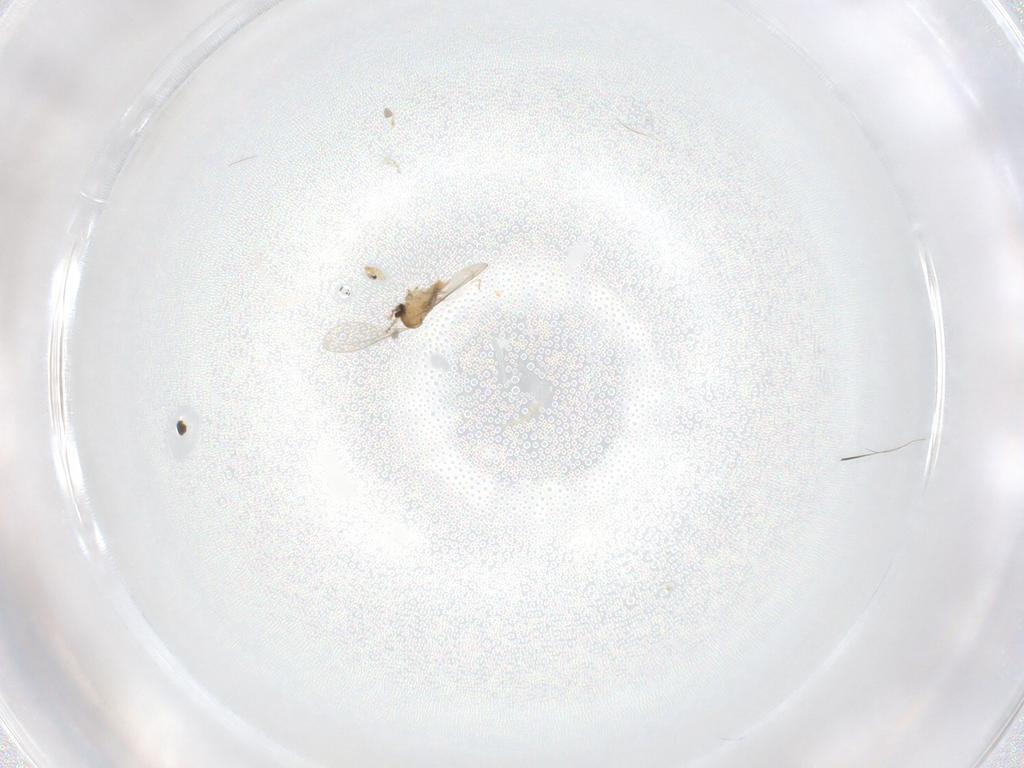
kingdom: Animalia
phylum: Arthropoda
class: Insecta
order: Diptera
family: Cecidomyiidae
